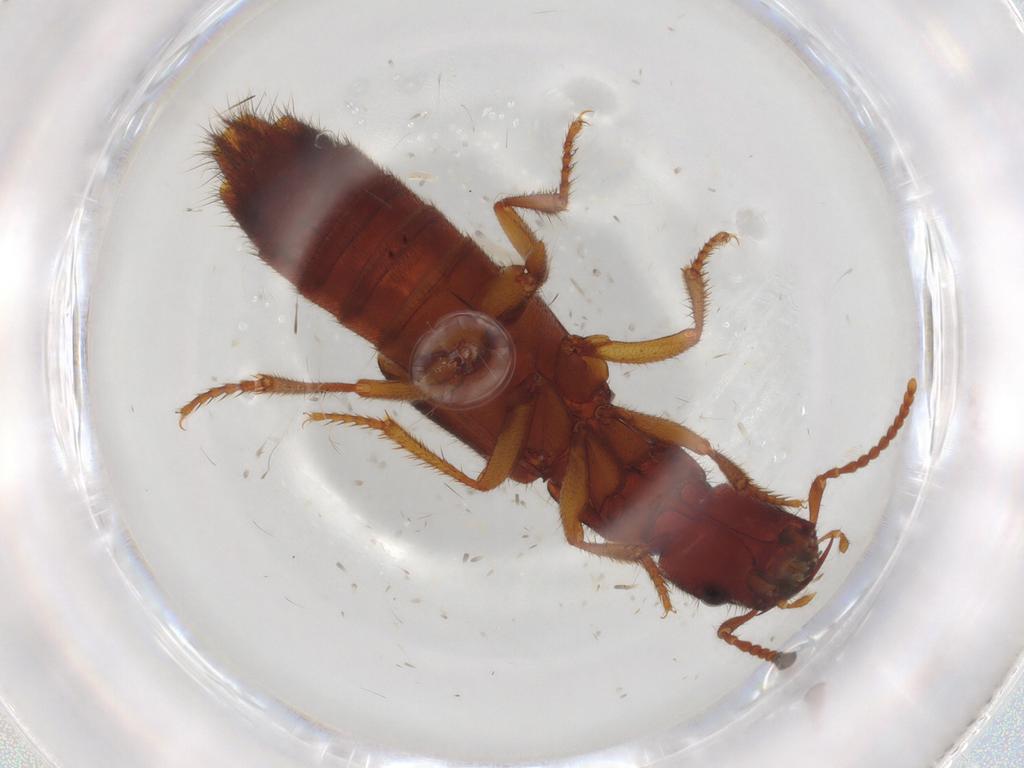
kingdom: Animalia
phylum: Arthropoda
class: Insecta
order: Coleoptera
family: Staphylinidae
